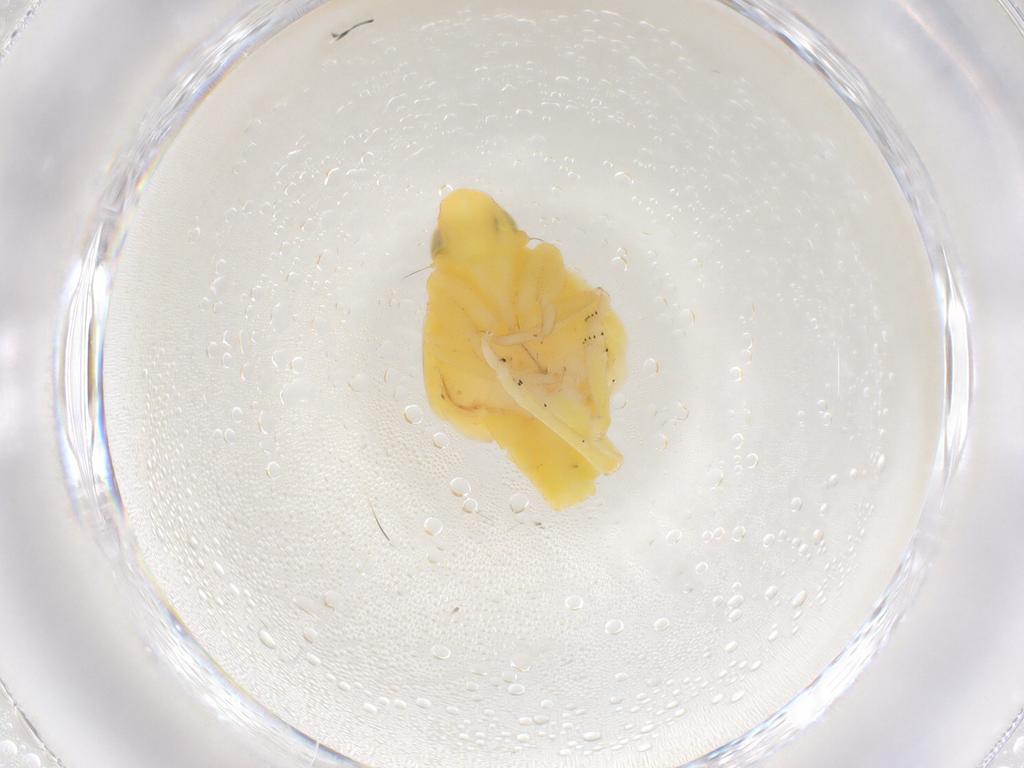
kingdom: Animalia
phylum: Arthropoda
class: Insecta
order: Hemiptera
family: Tropiduchidae
